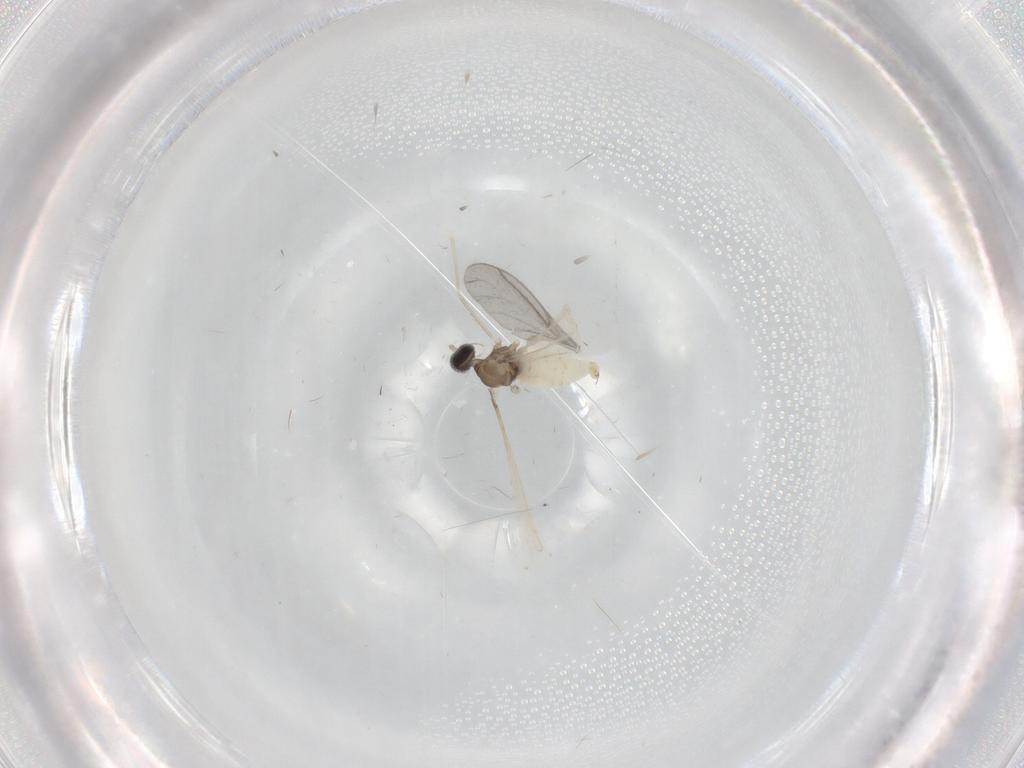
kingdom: Animalia
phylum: Arthropoda
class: Insecta
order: Diptera
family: Cecidomyiidae
